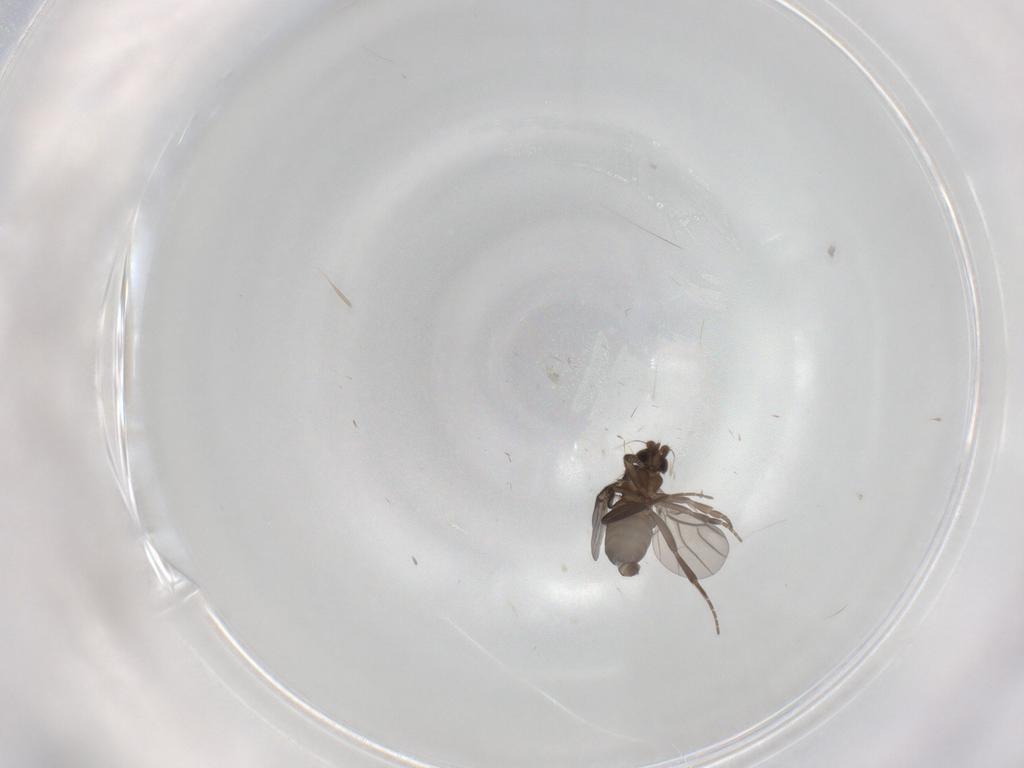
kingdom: Animalia
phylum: Arthropoda
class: Insecta
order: Diptera
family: Phoridae
